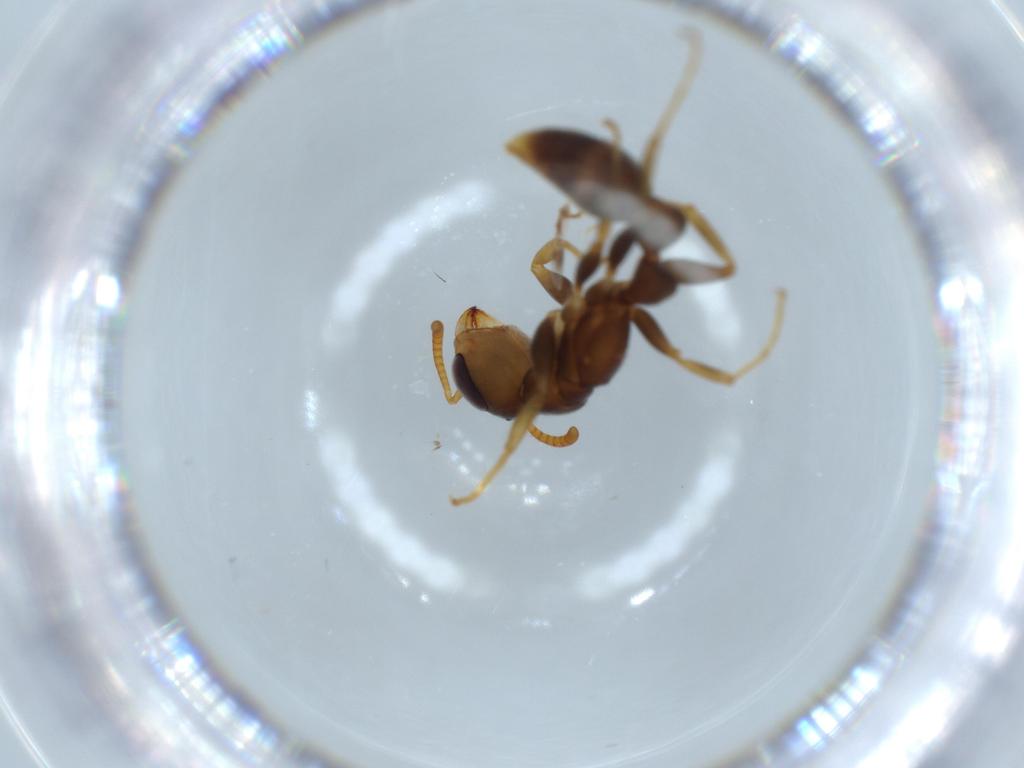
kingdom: Animalia
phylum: Arthropoda
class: Insecta
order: Hymenoptera
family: Formicidae
